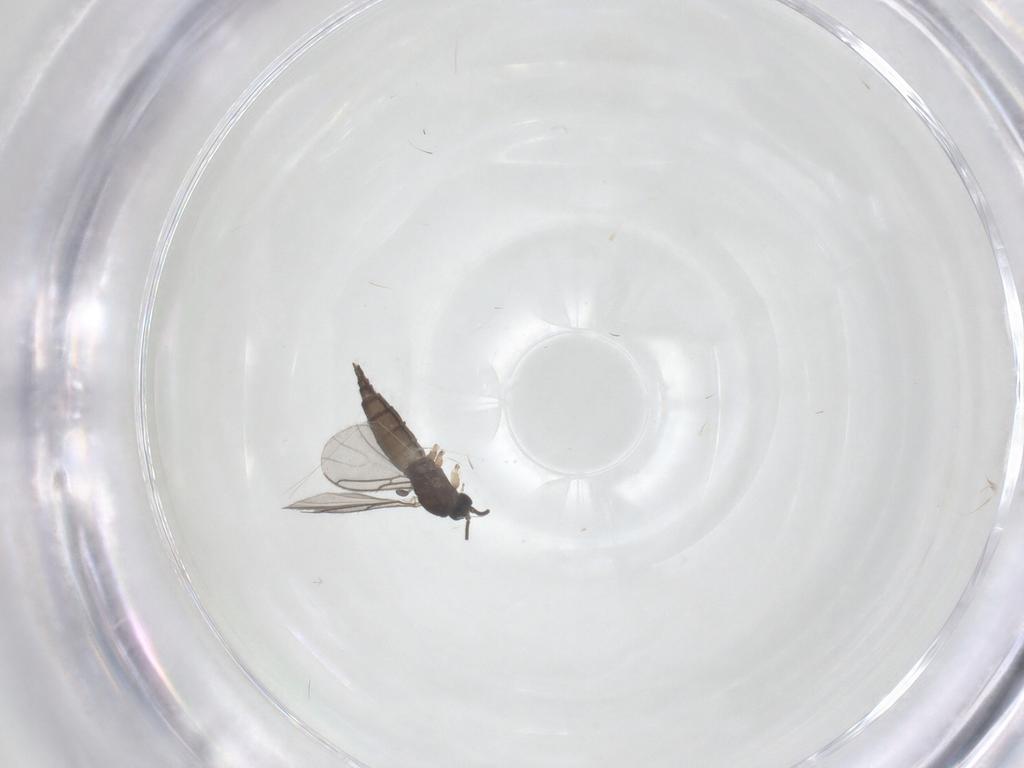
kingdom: Animalia
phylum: Arthropoda
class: Insecta
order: Diptera
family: Sciaridae
